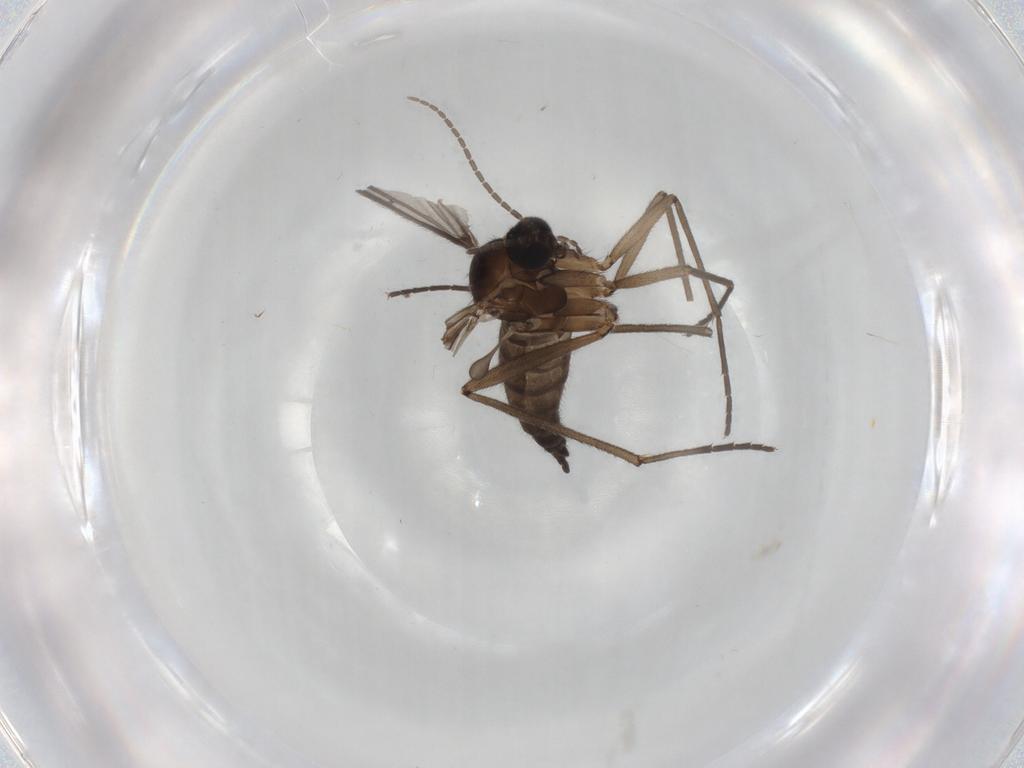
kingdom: Animalia
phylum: Arthropoda
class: Insecta
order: Diptera
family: Sciaridae
